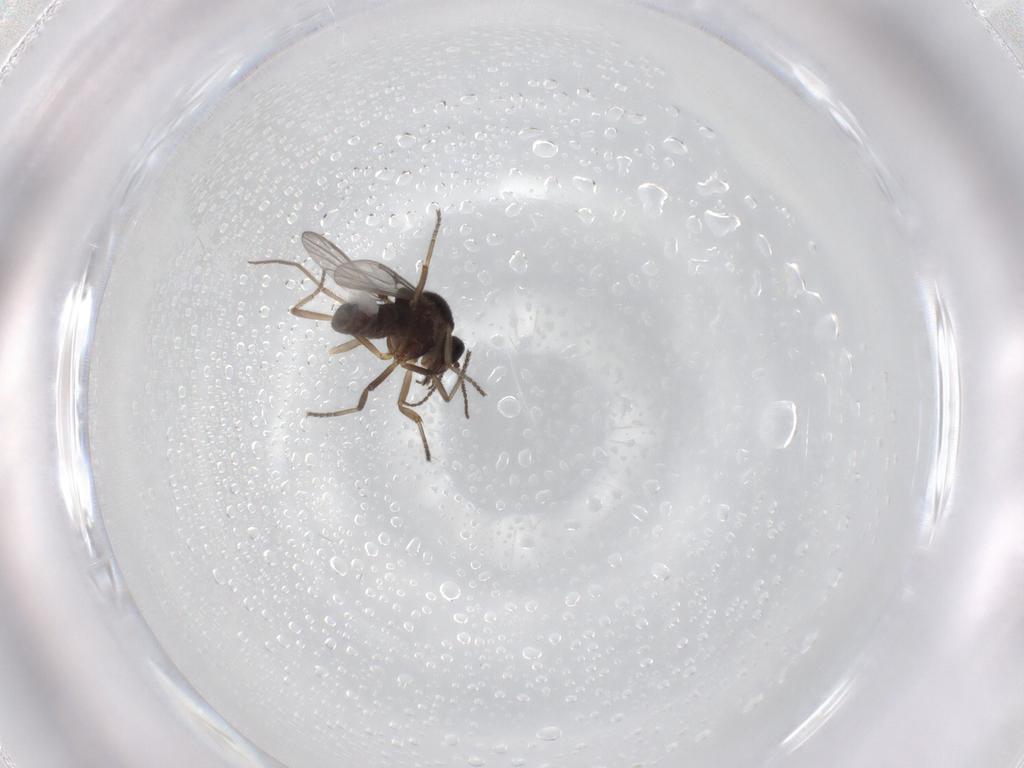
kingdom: Animalia
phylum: Arthropoda
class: Insecta
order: Diptera
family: Ceratopogonidae
